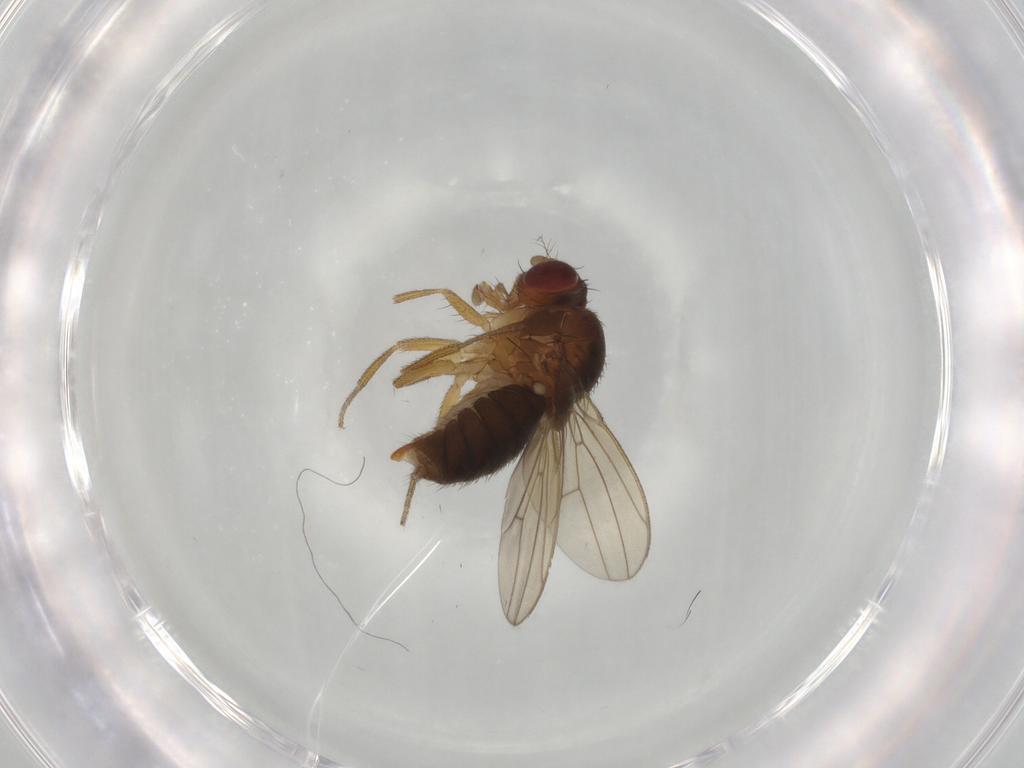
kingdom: Animalia
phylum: Arthropoda
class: Insecta
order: Diptera
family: Drosophilidae
